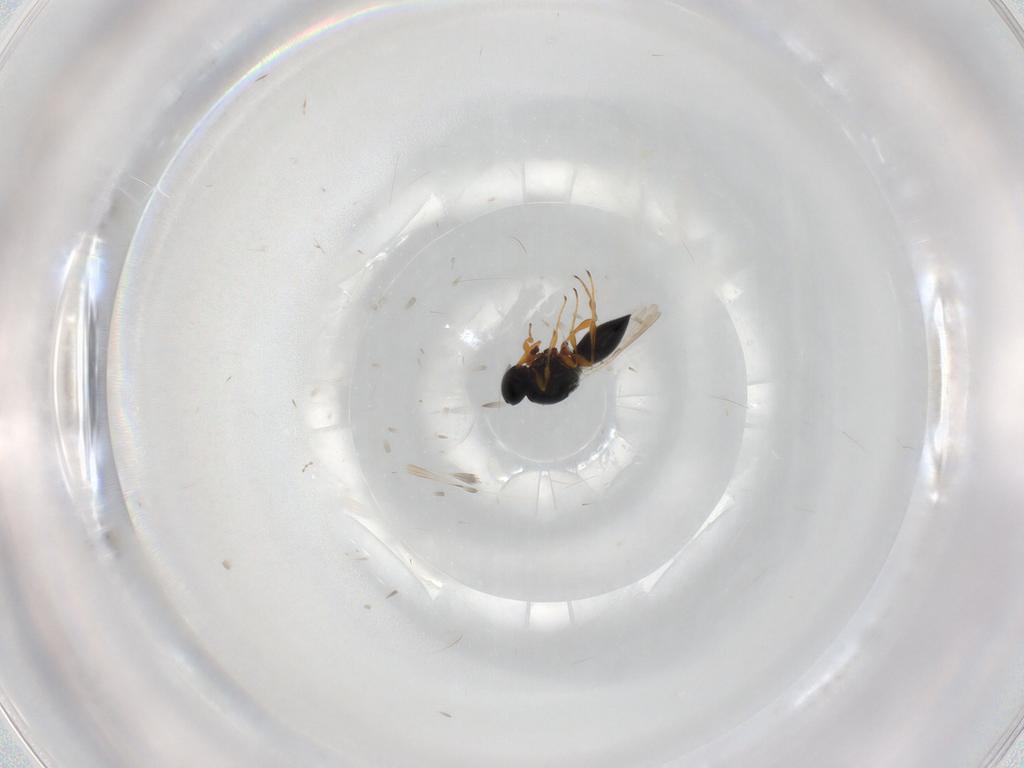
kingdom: Animalia
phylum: Arthropoda
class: Insecta
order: Hymenoptera
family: Platygastridae
